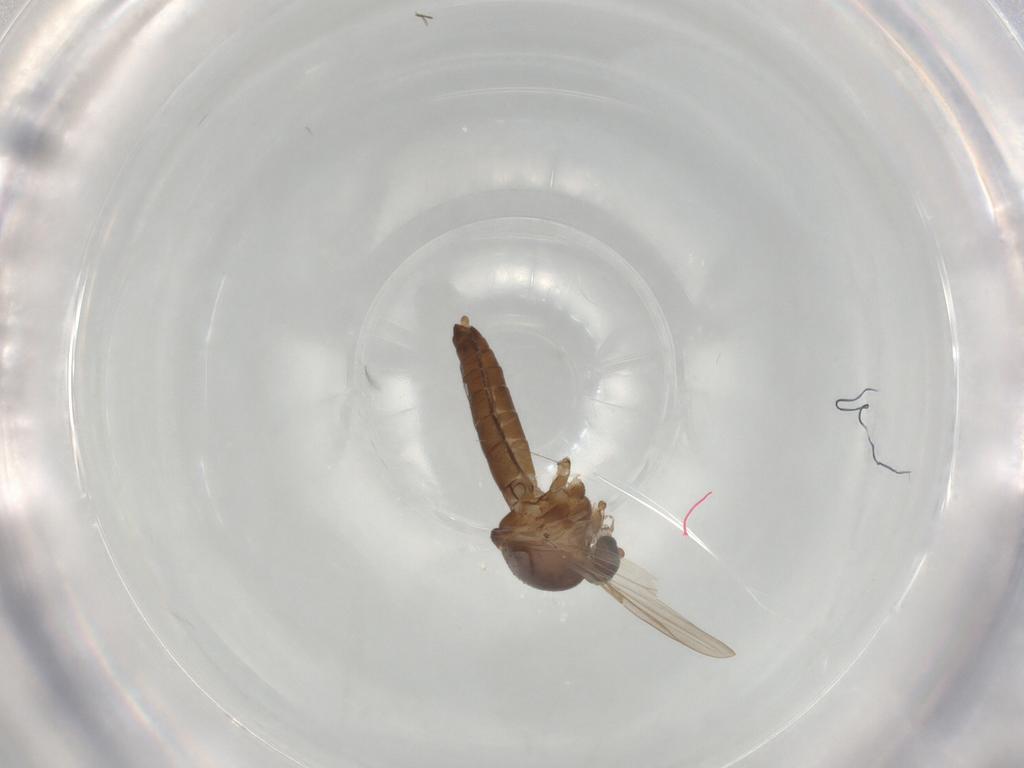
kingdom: Animalia
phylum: Arthropoda
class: Insecta
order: Diptera
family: Ceratopogonidae
